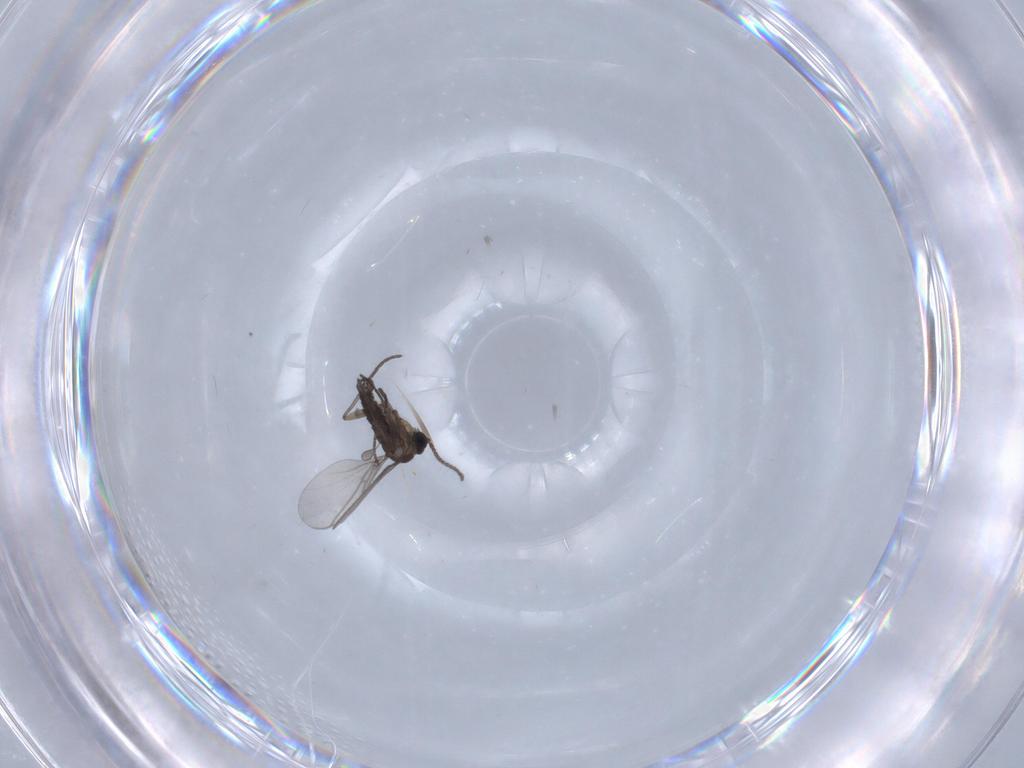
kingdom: Animalia
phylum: Arthropoda
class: Insecta
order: Diptera
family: Chironomidae
